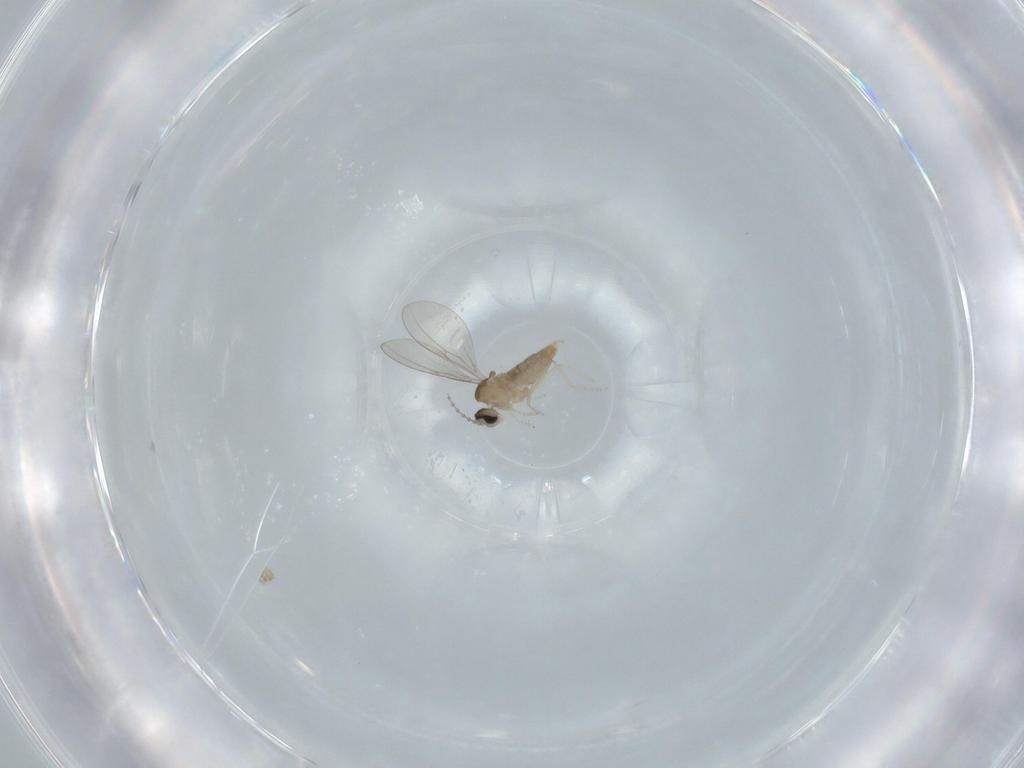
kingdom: Animalia
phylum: Arthropoda
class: Insecta
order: Diptera
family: Cecidomyiidae
